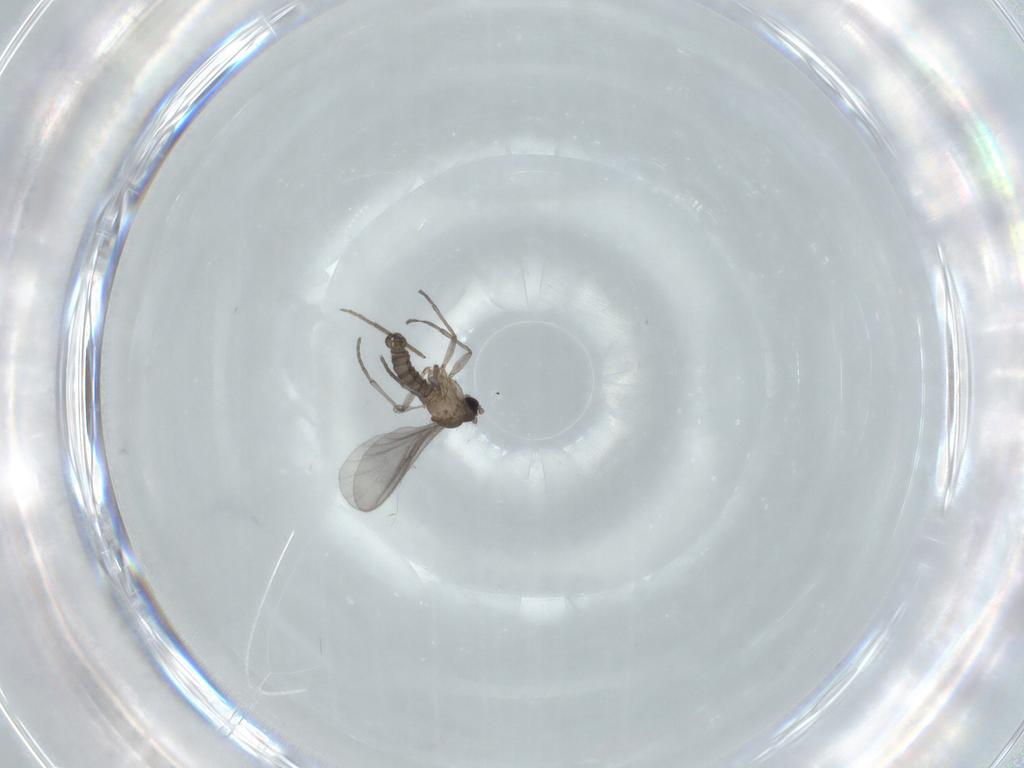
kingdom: Animalia
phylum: Arthropoda
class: Insecta
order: Diptera
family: Sciaridae
